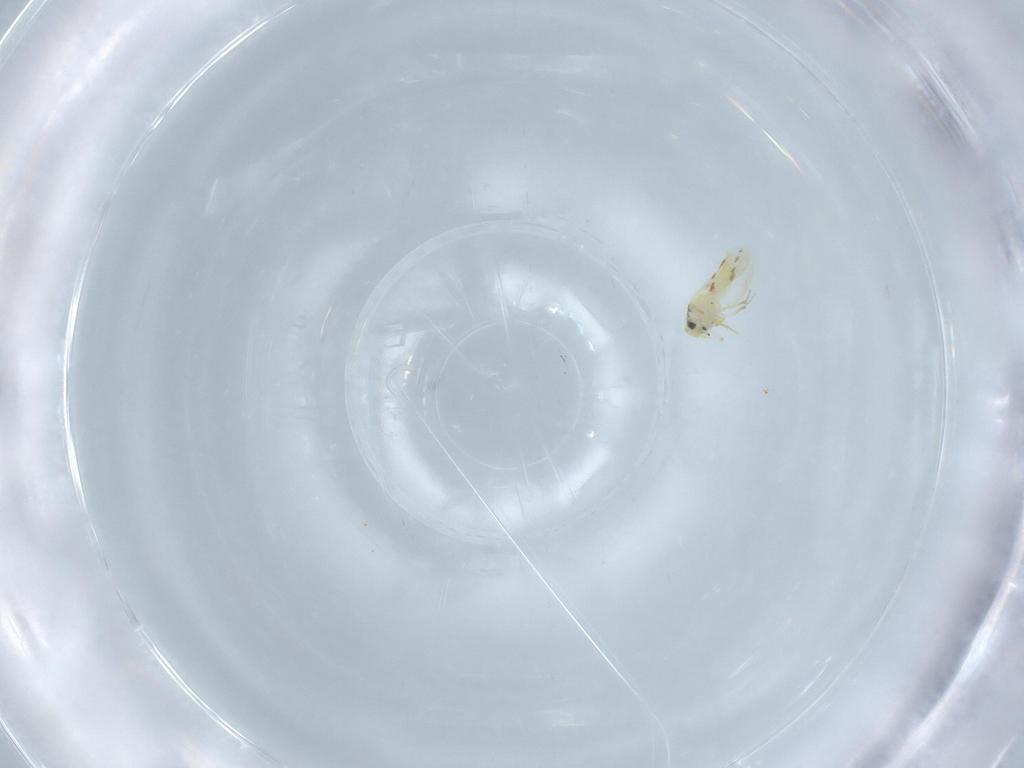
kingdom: Animalia
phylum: Arthropoda
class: Insecta
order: Hemiptera
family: Aleyrodidae
